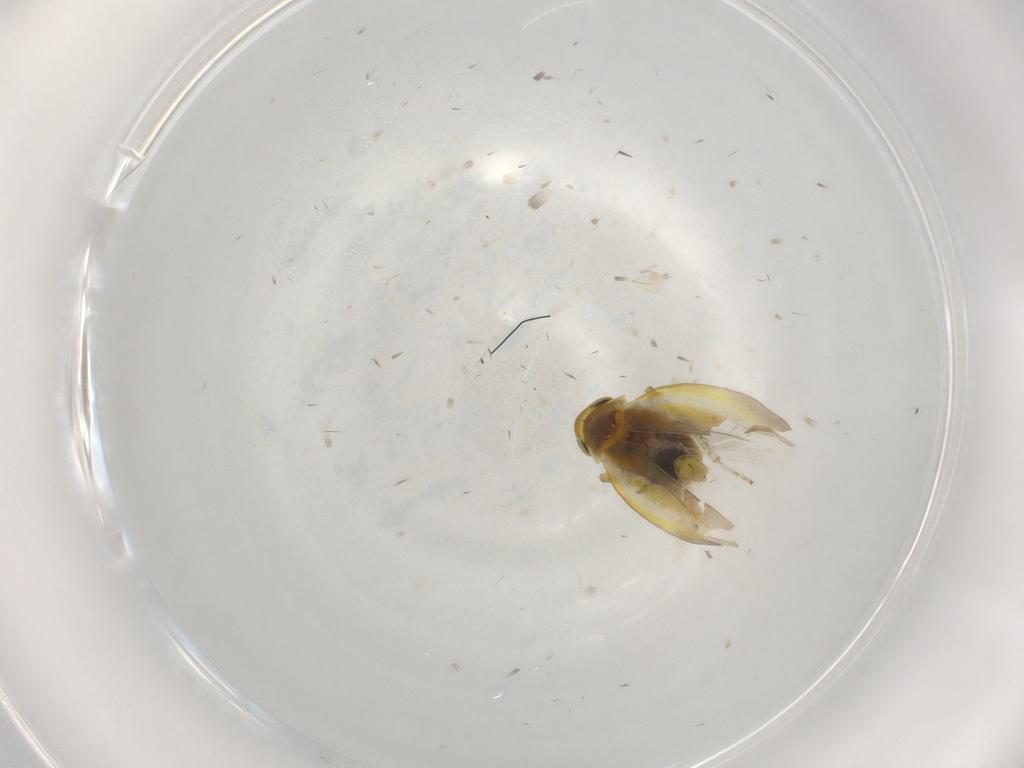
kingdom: Animalia
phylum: Arthropoda
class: Insecta
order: Hemiptera
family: Cicadellidae
